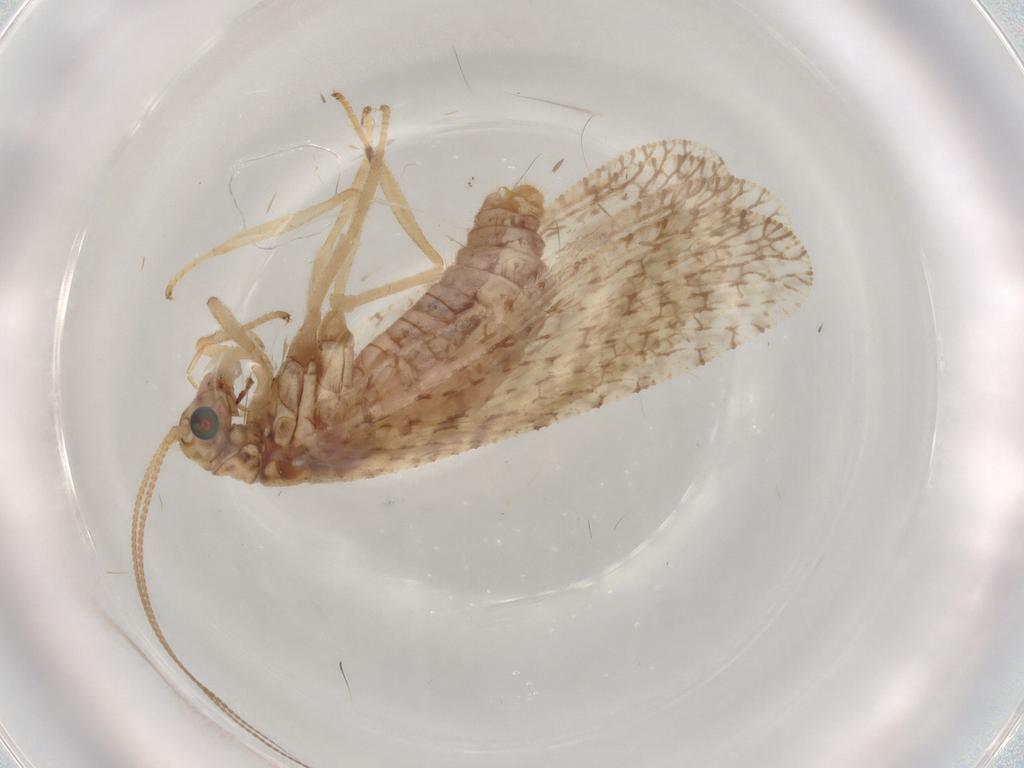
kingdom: Animalia
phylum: Arthropoda
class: Insecta
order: Neuroptera
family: Hemerobiidae
